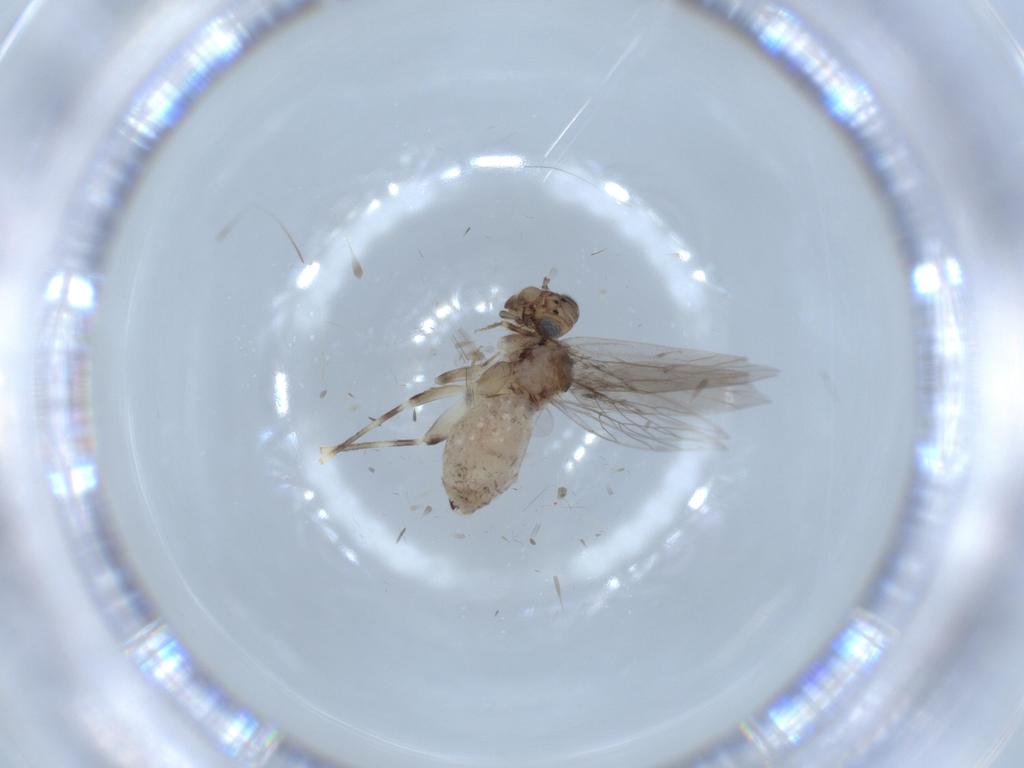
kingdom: Animalia
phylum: Arthropoda
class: Insecta
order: Psocodea
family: Lepidopsocidae
